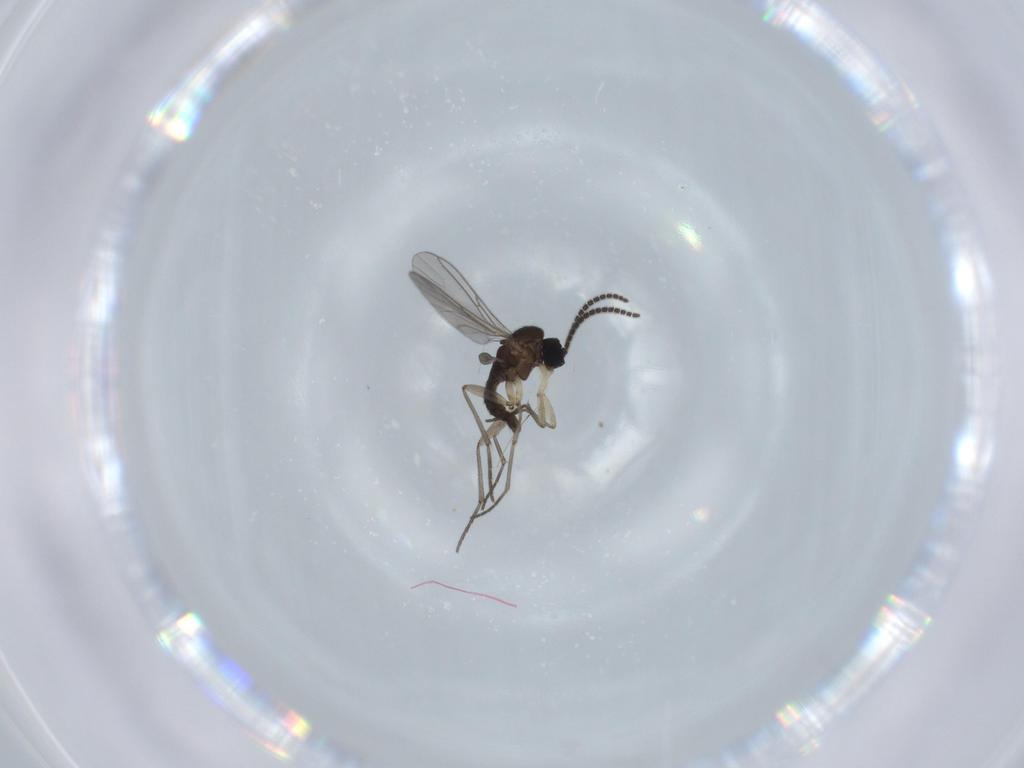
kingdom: Animalia
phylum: Arthropoda
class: Insecta
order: Diptera
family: Sciaridae
